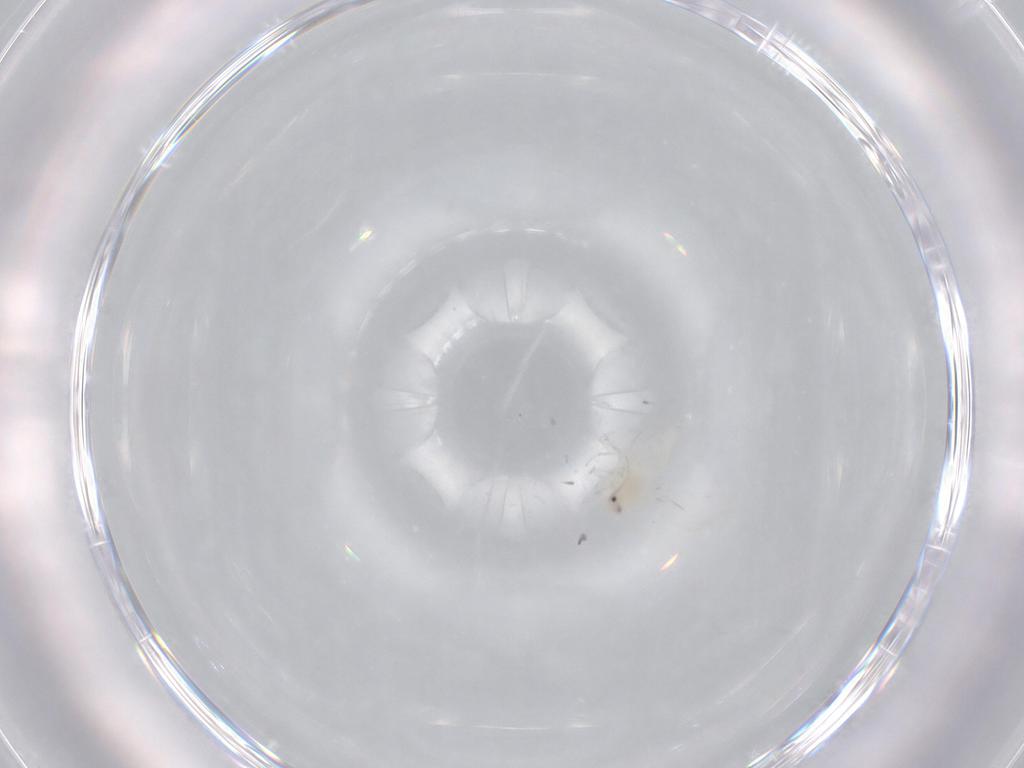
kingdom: Animalia
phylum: Arthropoda
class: Insecta
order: Hemiptera
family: Aleyrodidae
